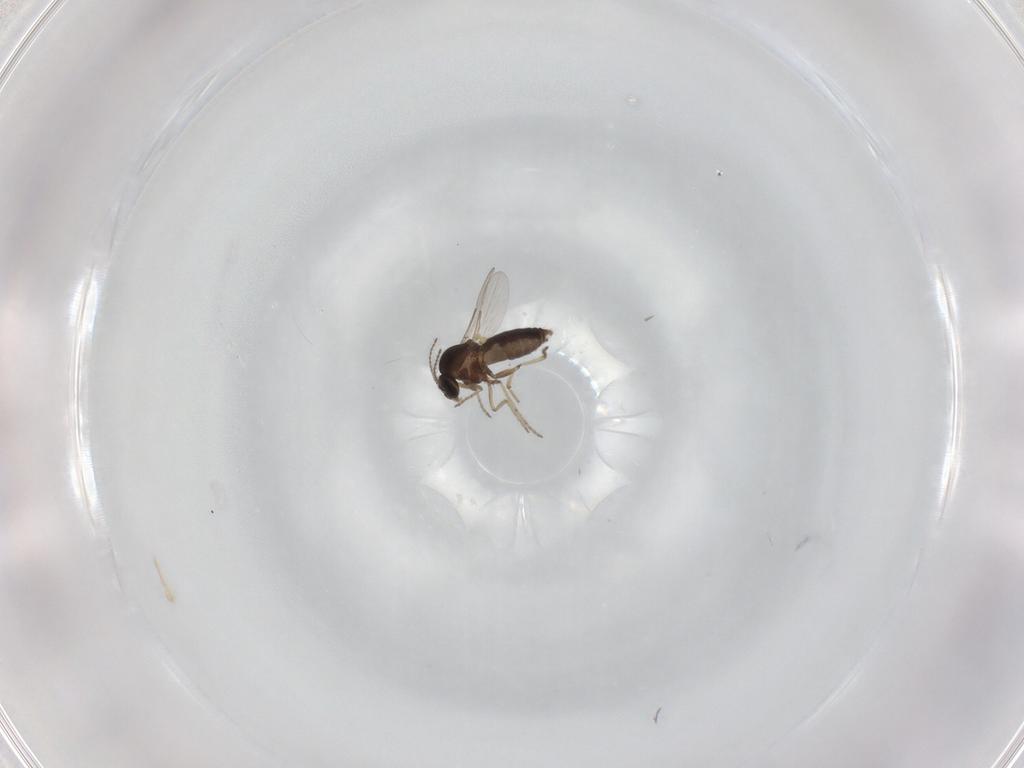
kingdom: Animalia
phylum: Arthropoda
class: Insecta
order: Diptera
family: Ceratopogonidae
